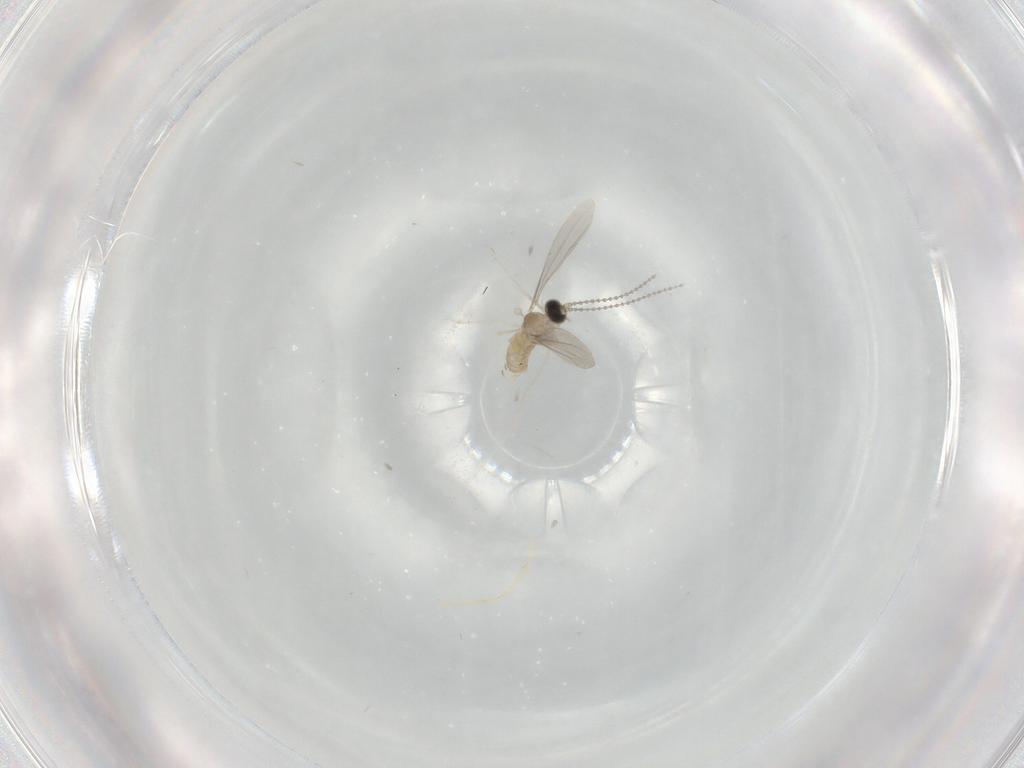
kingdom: Animalia
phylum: Arthropoda
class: Insecta
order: Diptera
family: Cecidomyiidae
